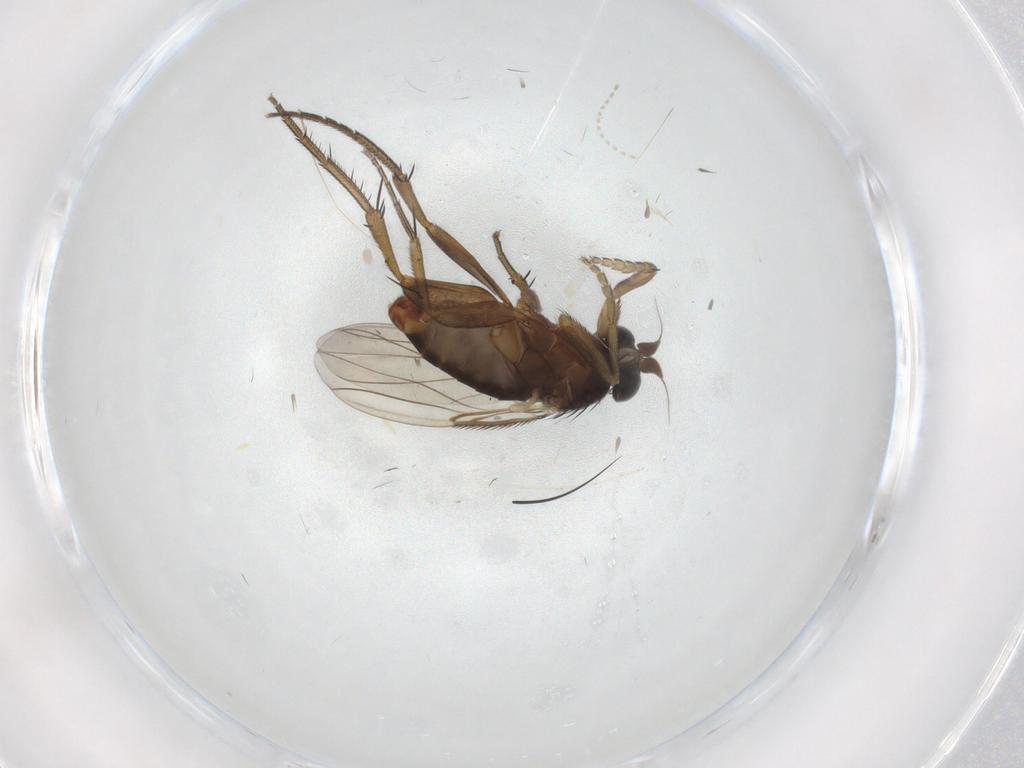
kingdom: Animalia
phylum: Arthropoda
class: Insecta
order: Diptera
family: Phoridae
